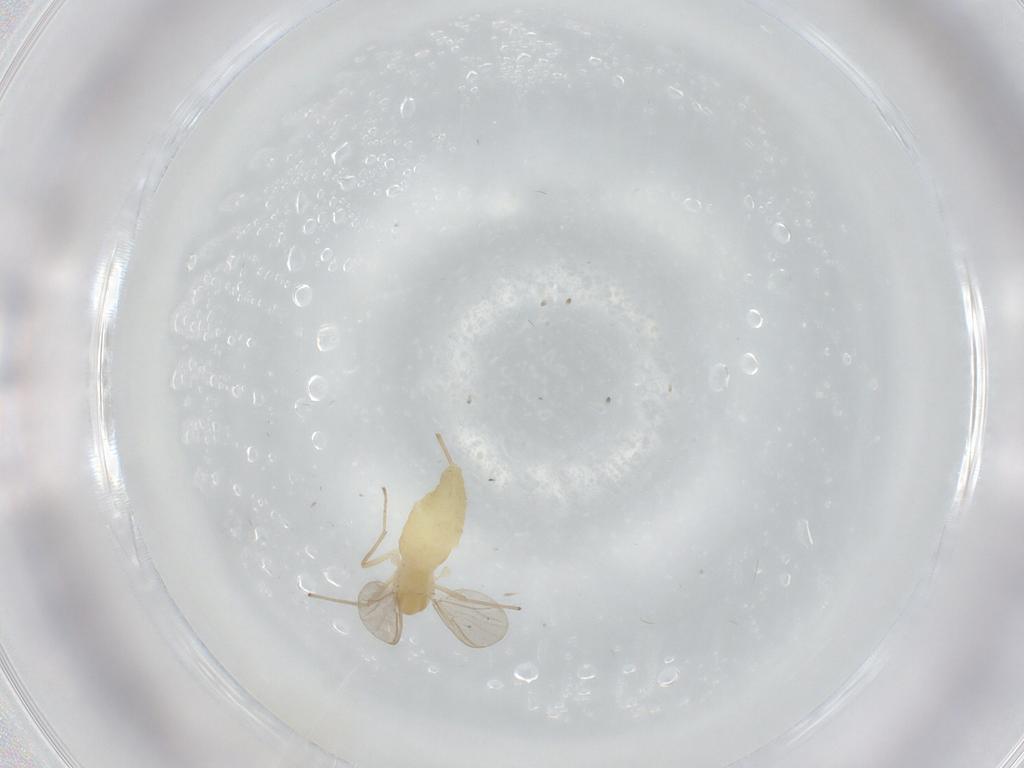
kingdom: Animalia
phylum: Arthropoda
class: Insecta
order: Diptera
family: Chironomidae
